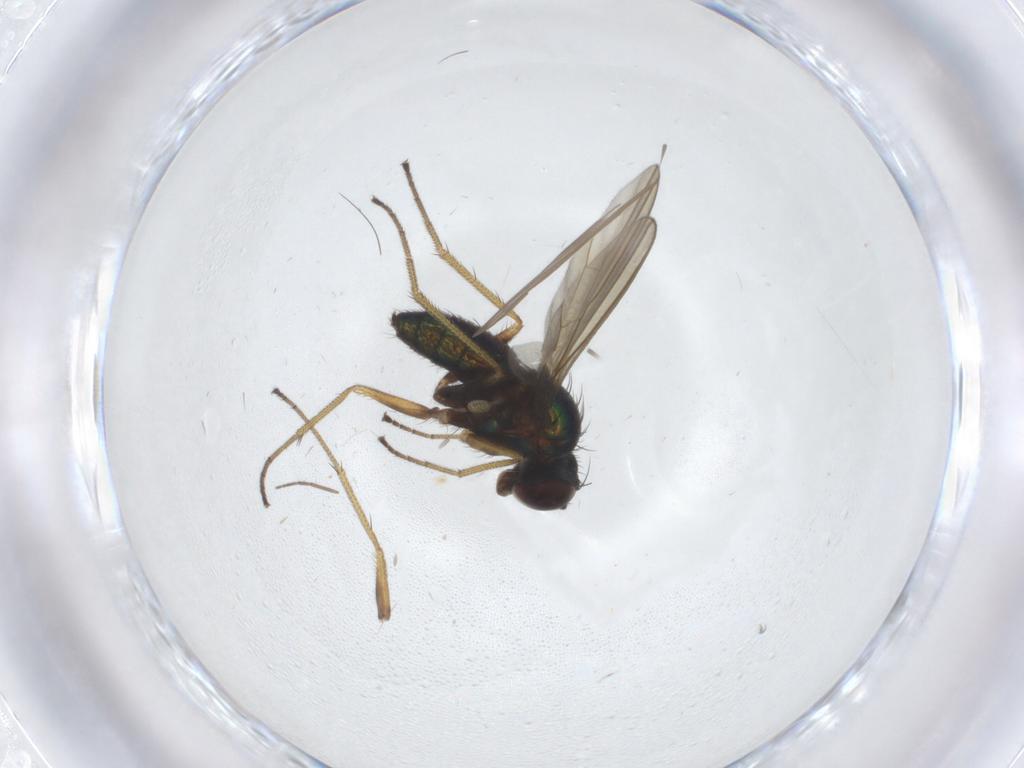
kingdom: Animalia
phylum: Arthropoda
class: Insecta
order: Diptera
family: Dolichopodidae
